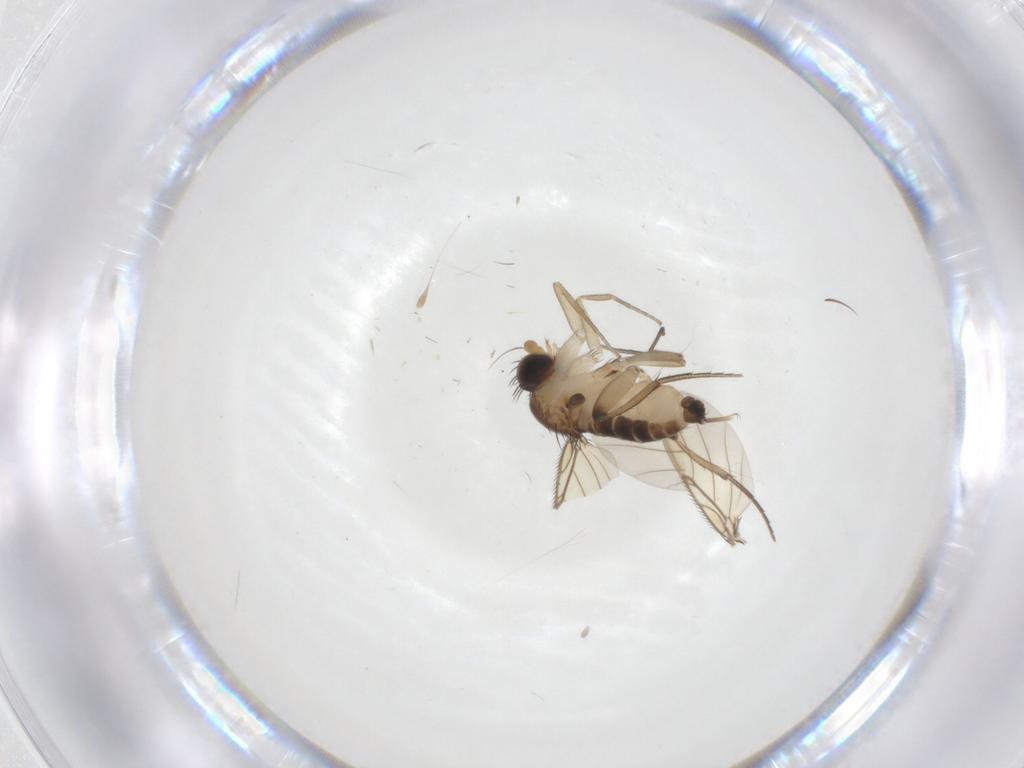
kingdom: Animalia
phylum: Arthropoda
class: Insecta
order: Diptera
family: Phoridae
